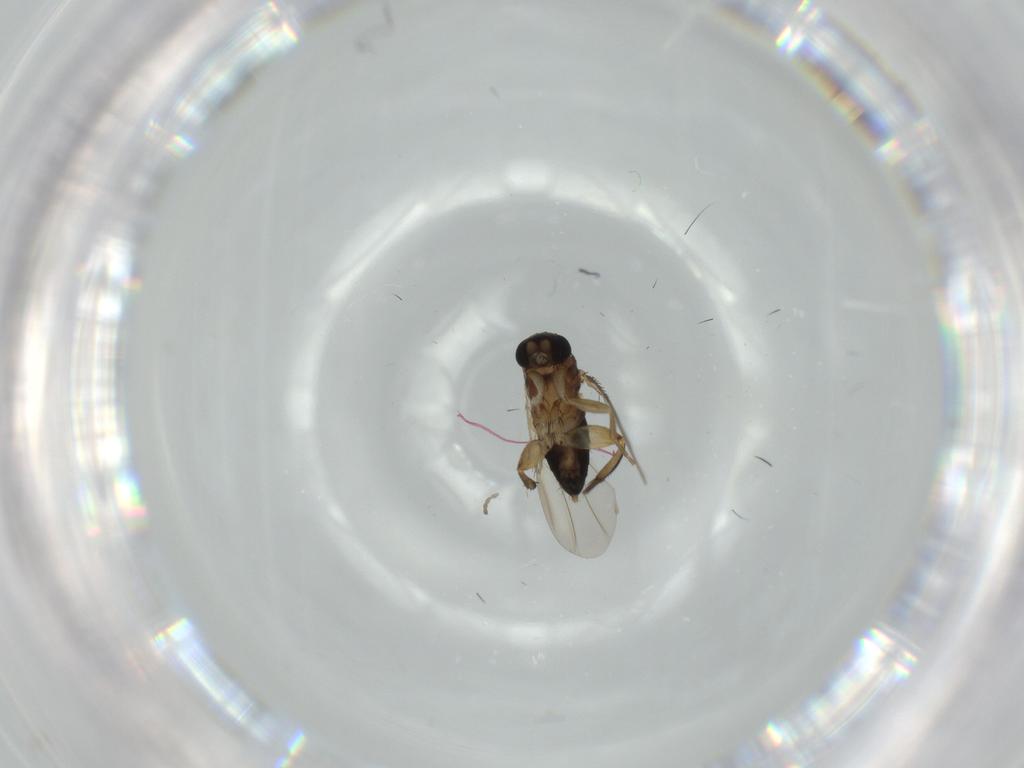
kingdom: Animalia
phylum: Arthropoda
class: Insecta
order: Diptera
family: Phoridae
